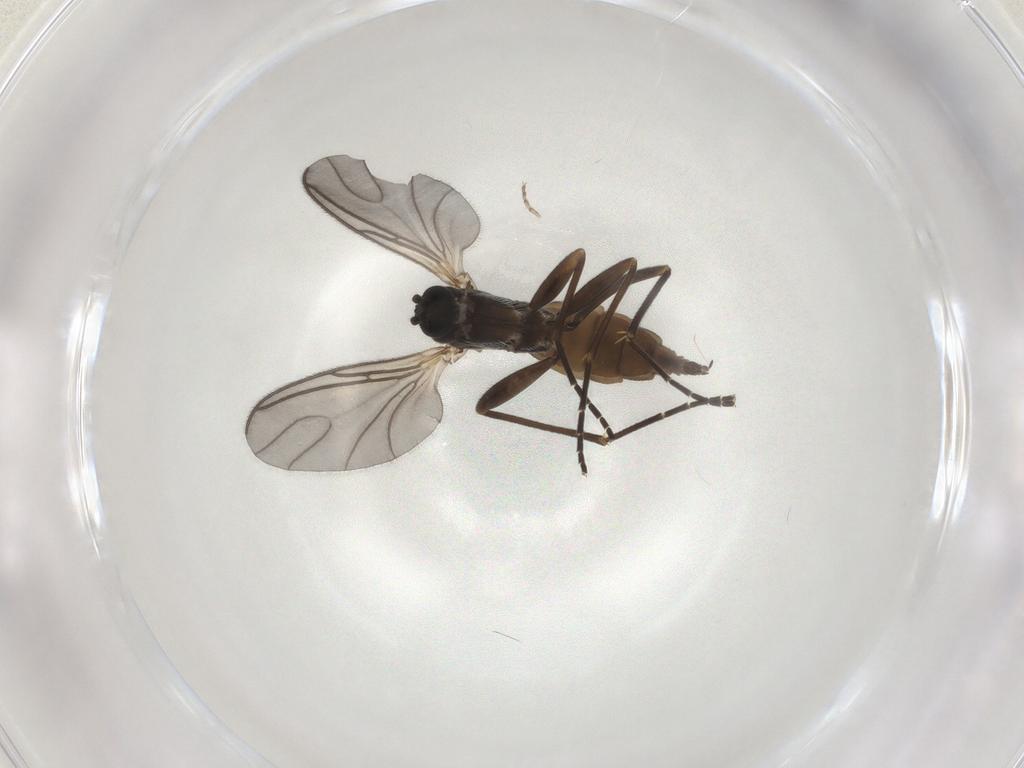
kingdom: Animalia
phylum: Arthropoda
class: Insecta
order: Diptera
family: Sciaridae
